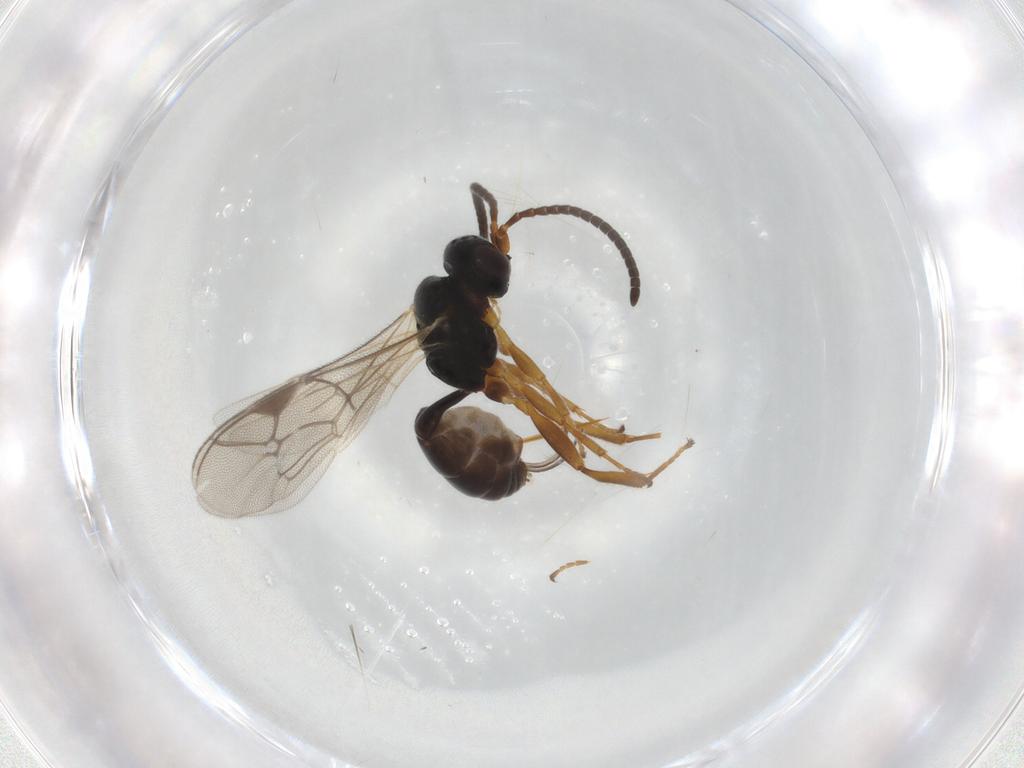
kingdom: Animalia
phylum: Arthropoda
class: Insecta
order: Hymenoptera
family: Ichneumonidae
